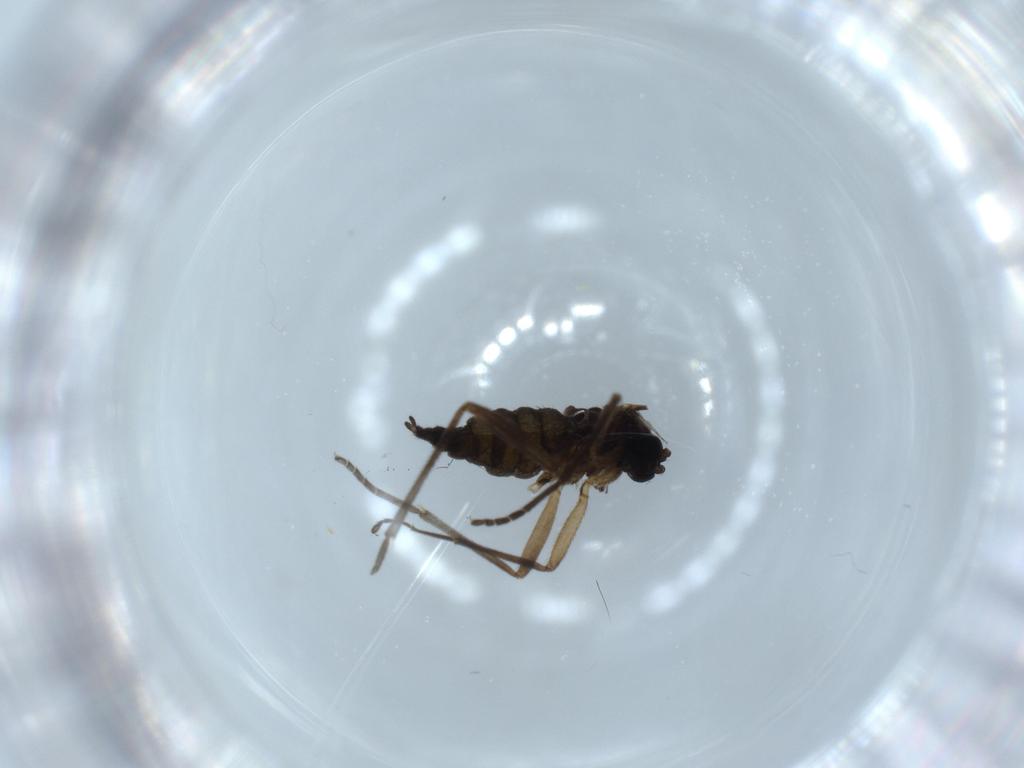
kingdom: Animalia
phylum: Arthropoda
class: Insecta
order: Diptera
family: Sciaridae
